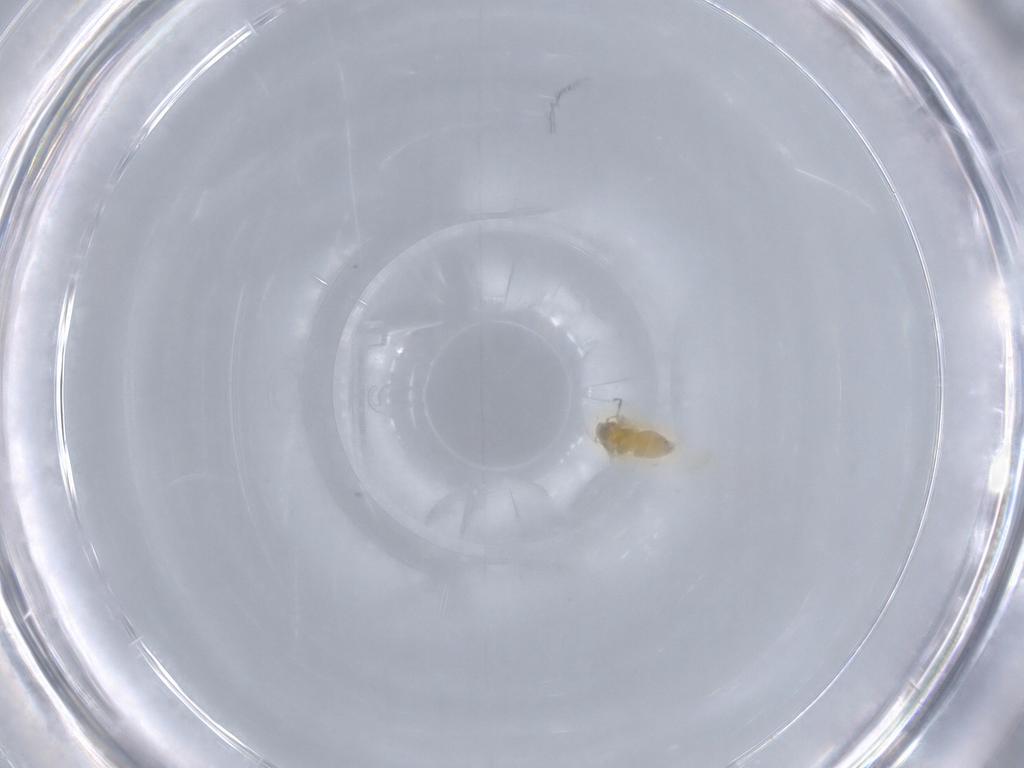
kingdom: Animalia
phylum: Arthropoda
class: Insecta
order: Hemiptera
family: Aleyrodidae
